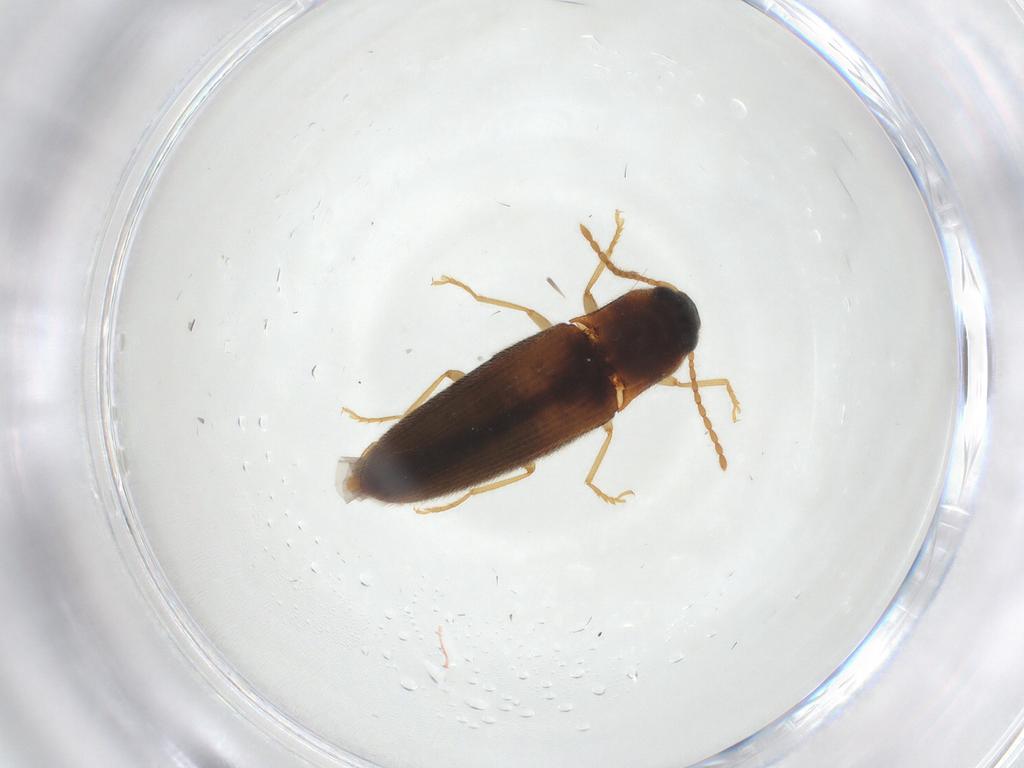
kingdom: Animalia
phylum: Arthropoda
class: Insecta
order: Coleoptera
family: Elateridae
